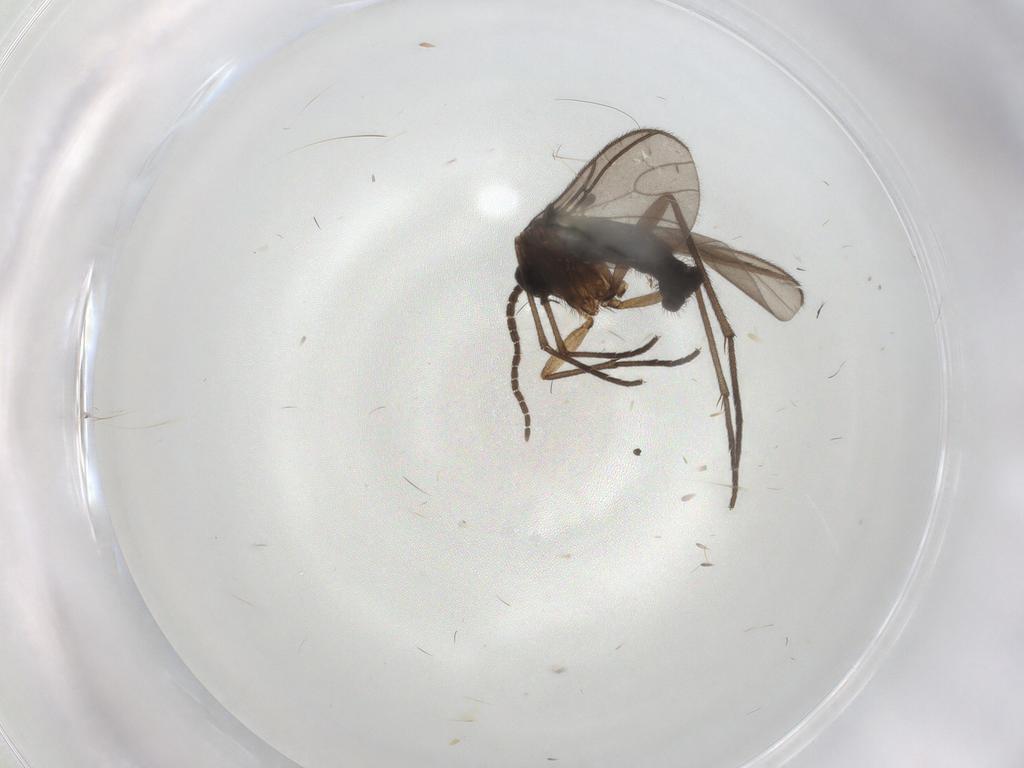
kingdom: Animalia
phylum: Arthropoda
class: Insecta
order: Diptera
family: Sciaridae
